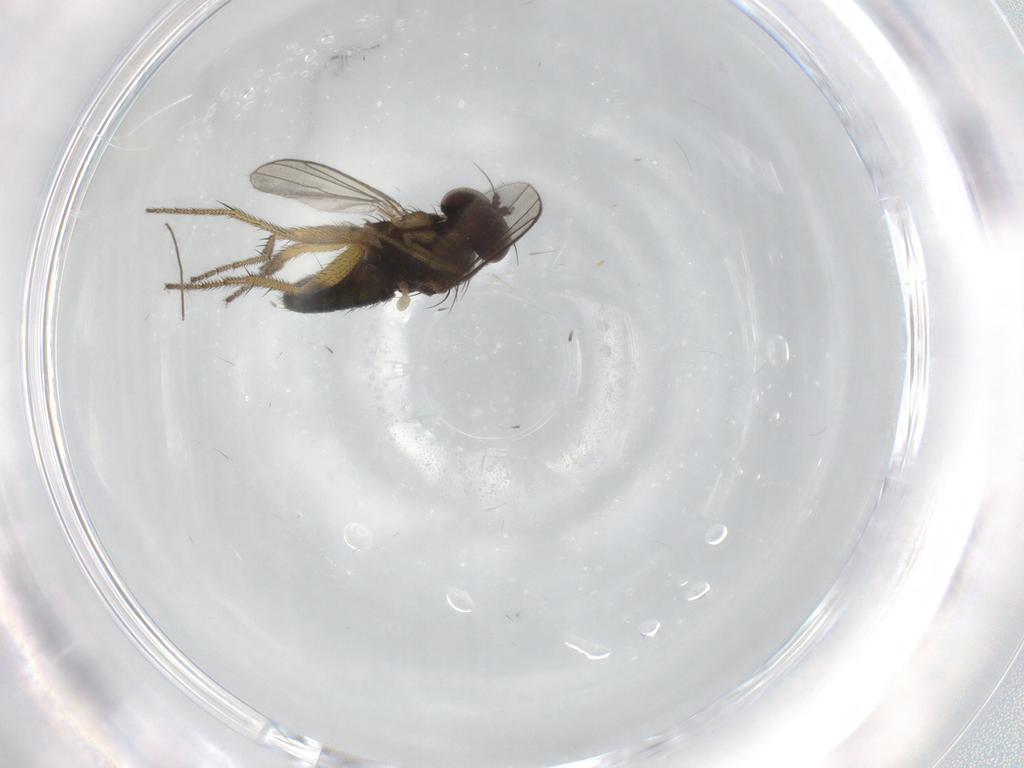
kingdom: Animalia
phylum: Arthropoda
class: Insecta
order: Diptera
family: Dolichopodidae
